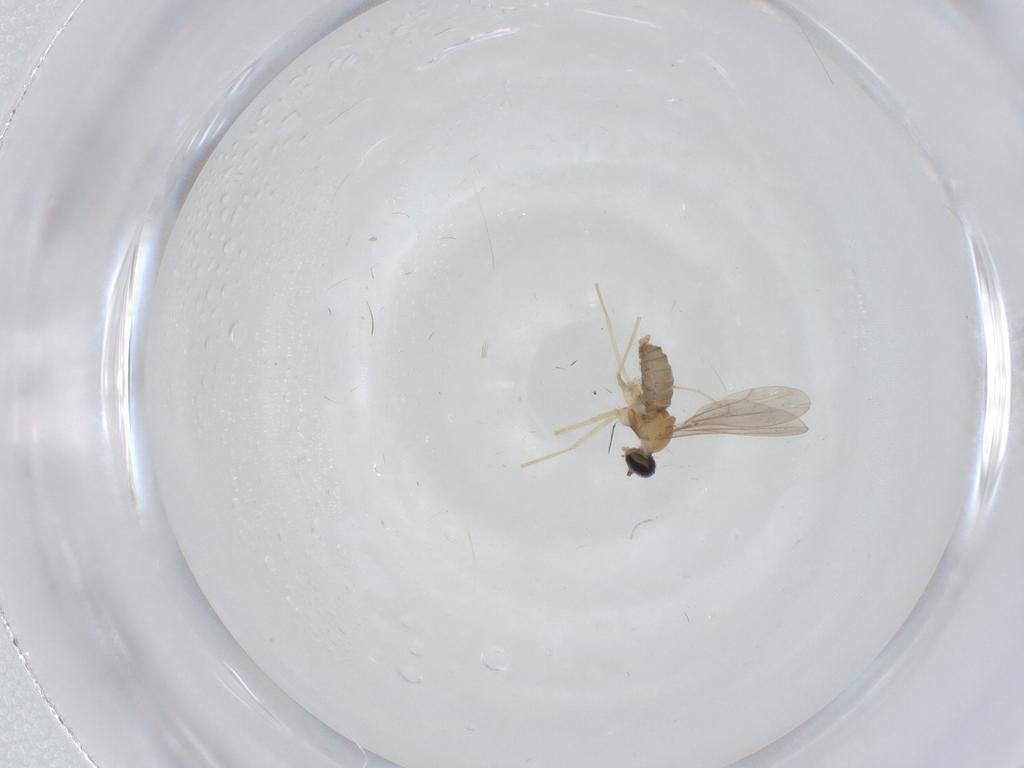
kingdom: Animalia
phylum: Arthropoda
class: Insecta
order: Diptera
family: Cecidomyiidae
